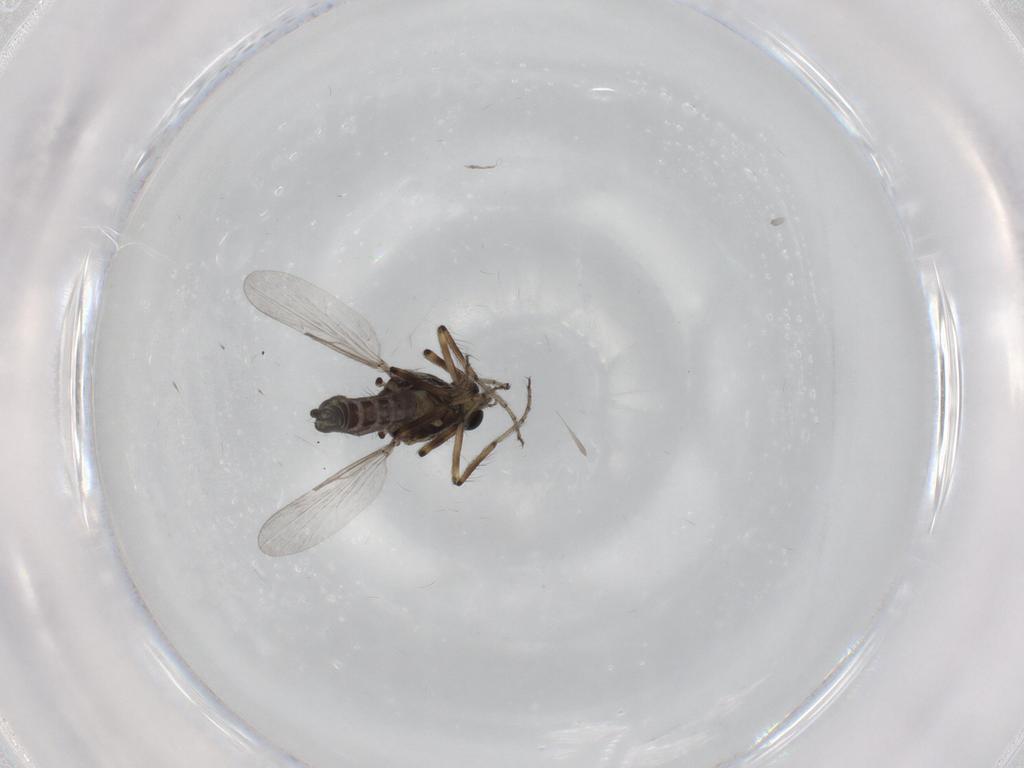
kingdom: Animalia
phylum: Arthropoda
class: Insecta
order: Diptera
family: Ceratopogonidae
